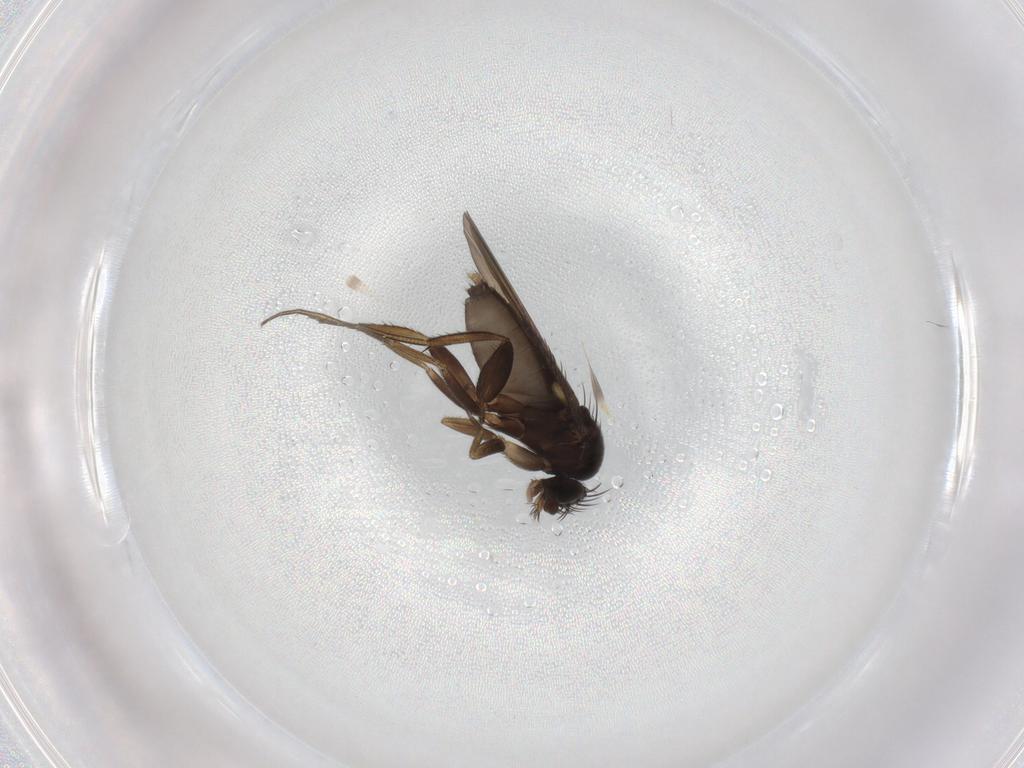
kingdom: Animalia
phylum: Arthropoda
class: Insecta
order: Diptera
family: Phoridae
